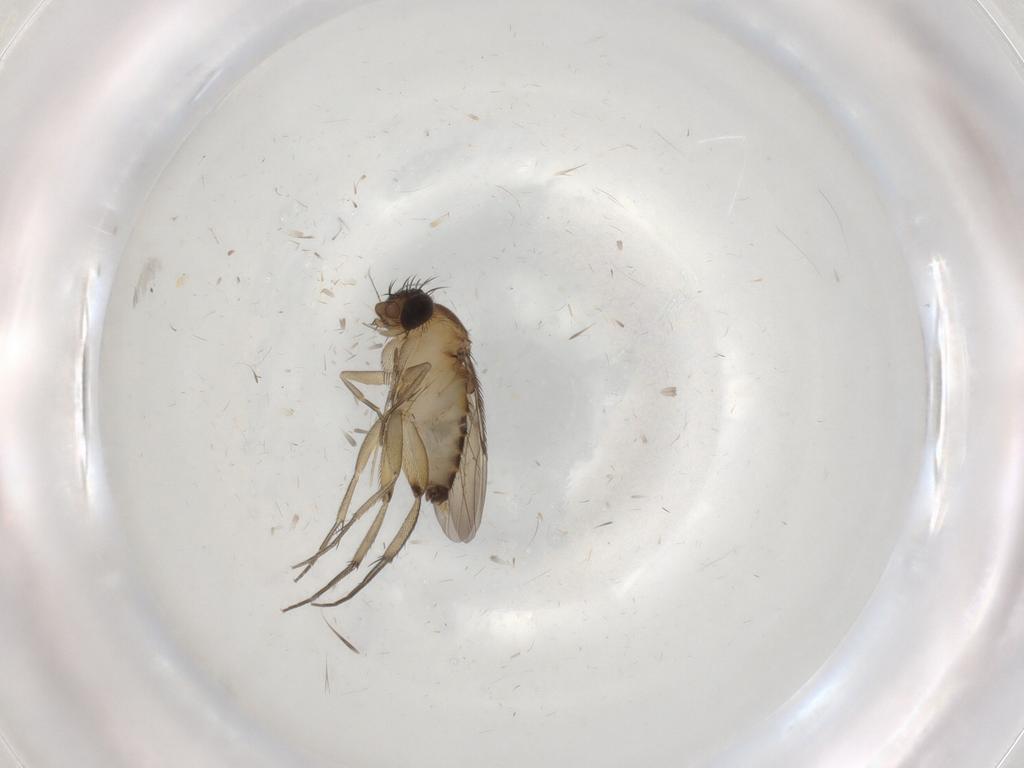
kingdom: Animalia
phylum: Arthropoda
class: Insecta
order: Diptera
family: Phoridae
